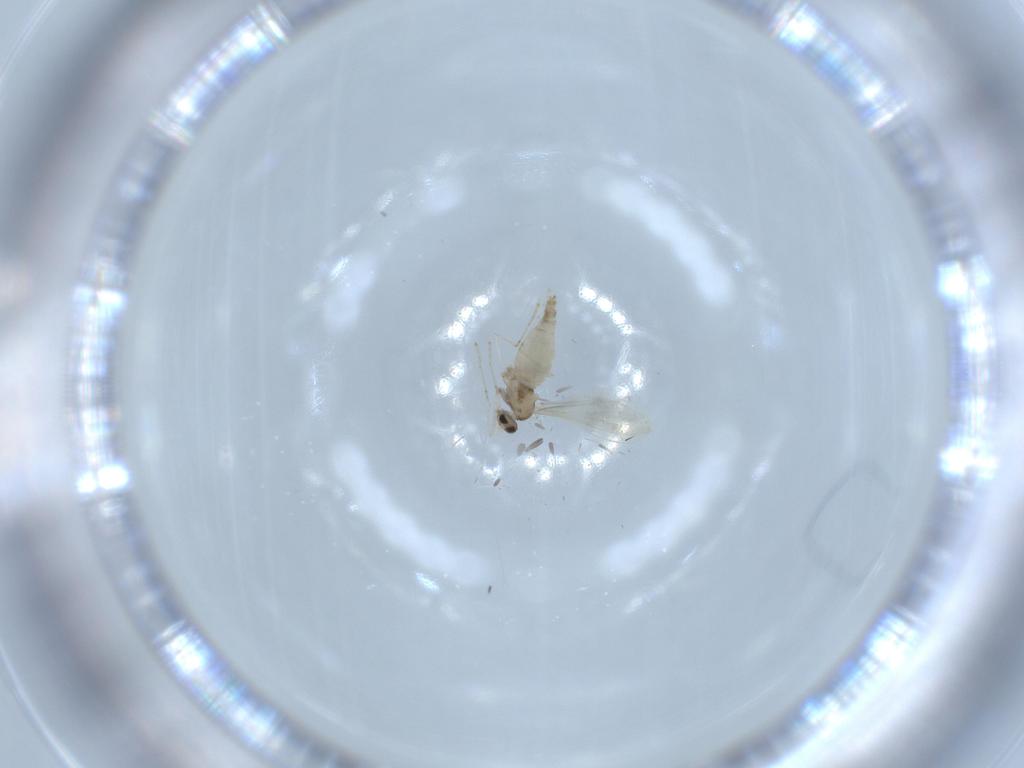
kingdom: Animalia
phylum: Arthropoda
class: Insecta
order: Diptera
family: Cecidomyiidae
